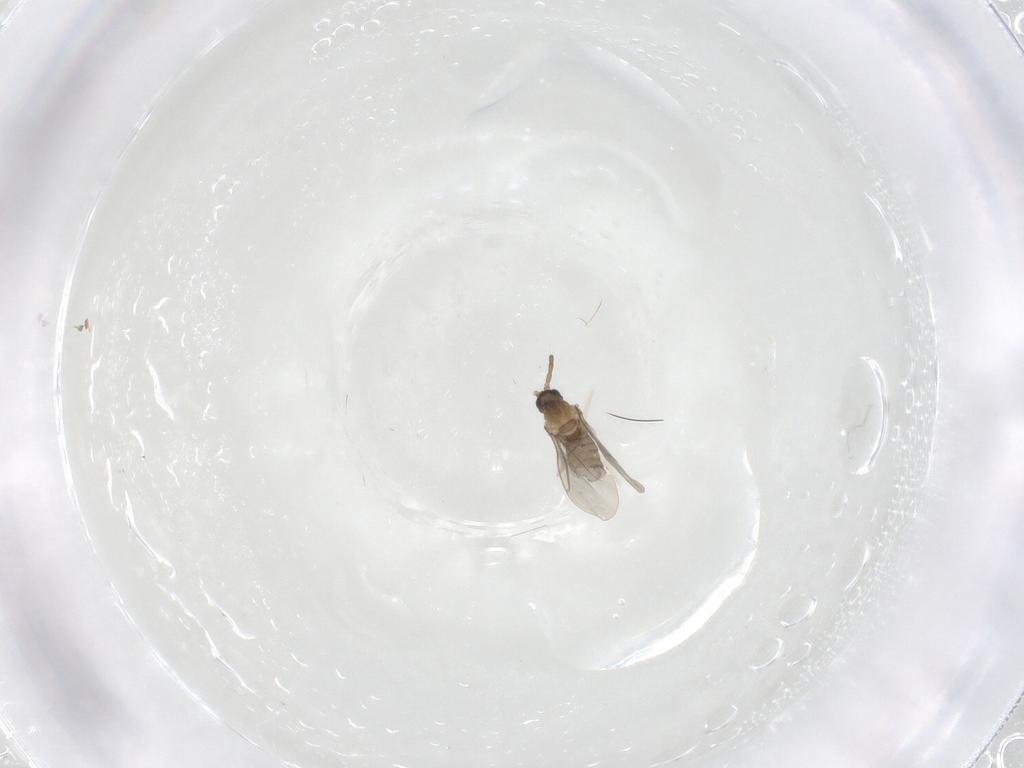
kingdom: Animalia
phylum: Arthropoda
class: Insecta
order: Diptera
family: Cecidomyiidae
